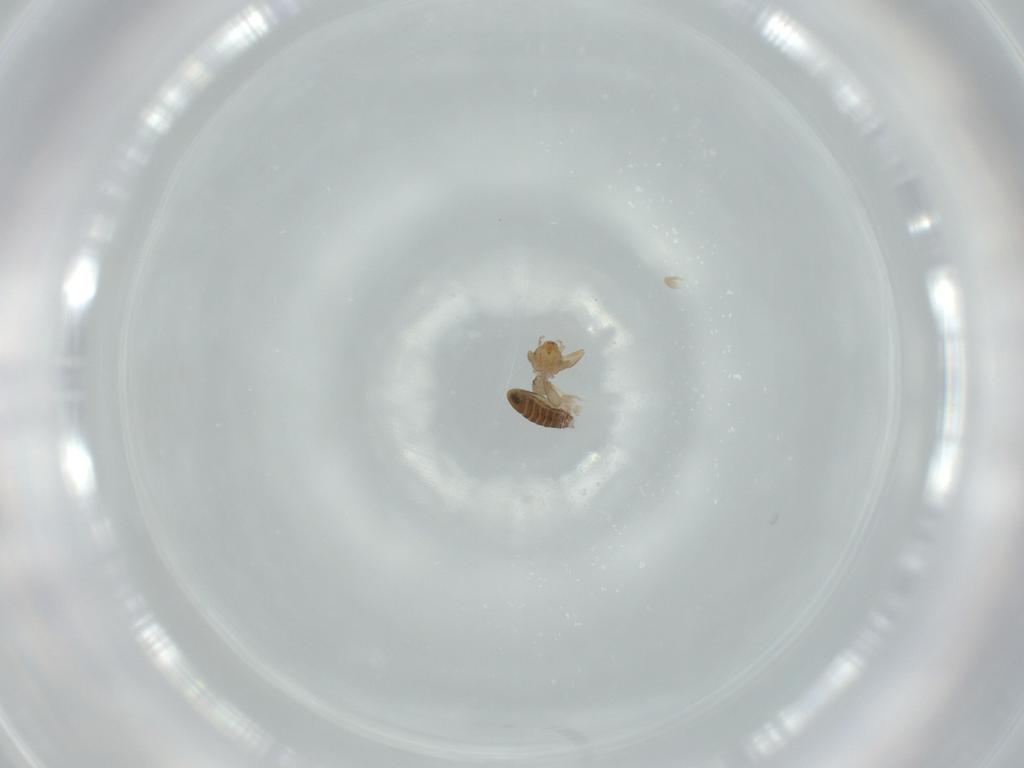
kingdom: Animalia
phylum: Arthropoda
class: Insecta
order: Psocodea
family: Liposcelididae
